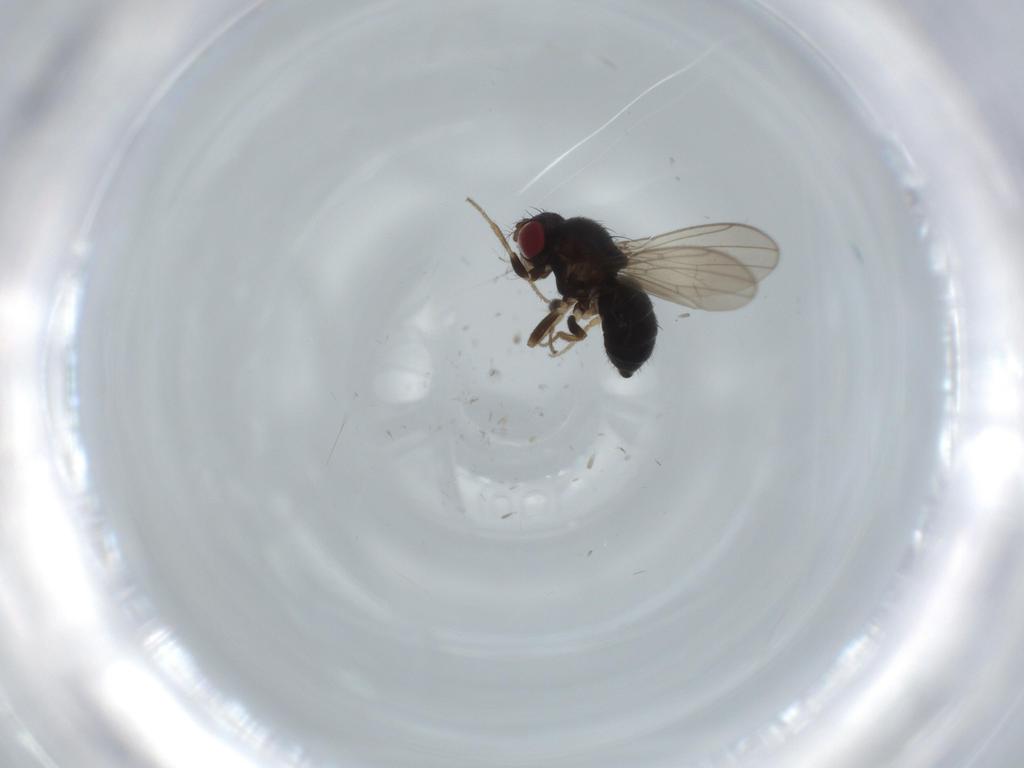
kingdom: Animalia
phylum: Arthropoda
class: Insecta
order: Diptera
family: Drosophilidae
